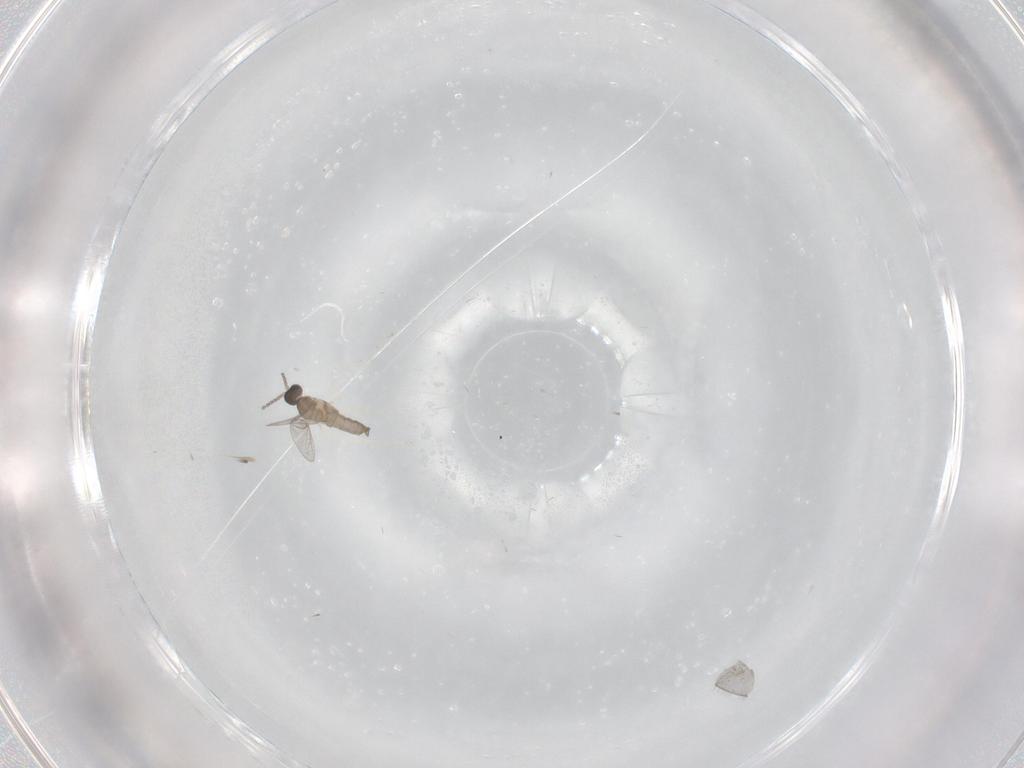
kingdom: Animalia
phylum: Arthropoda
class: Insecta
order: Diptera
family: Cecidomyiidae
